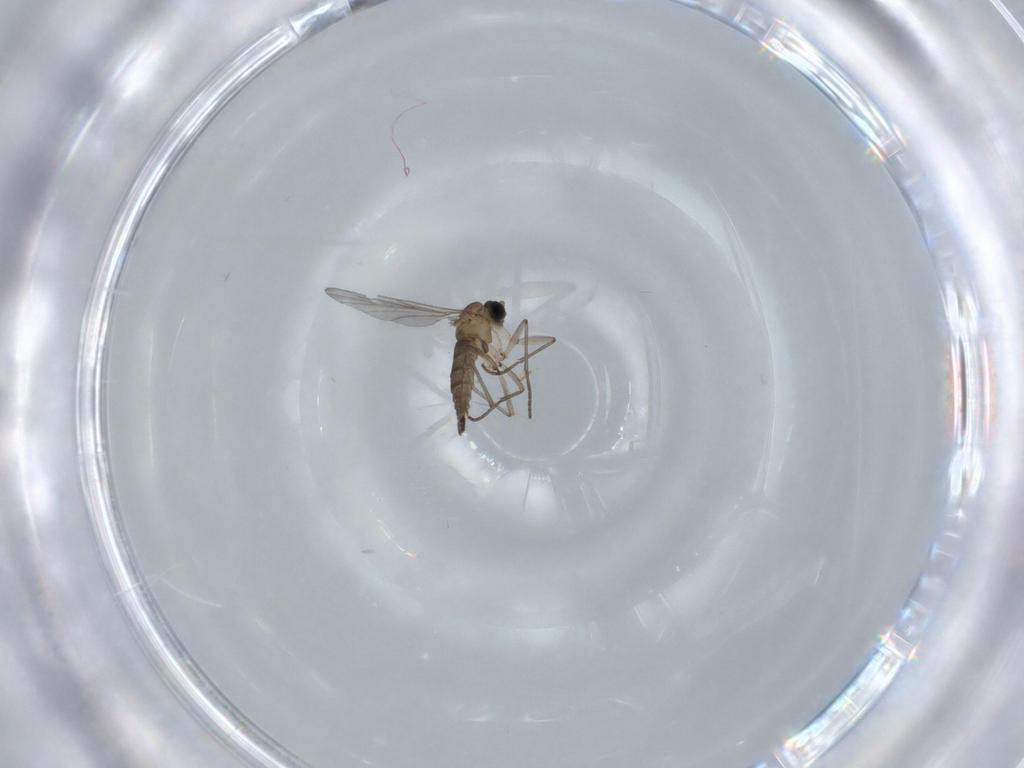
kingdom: Animalia
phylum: Arthropoda
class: Insecta
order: Diptera
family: Sciaridae
